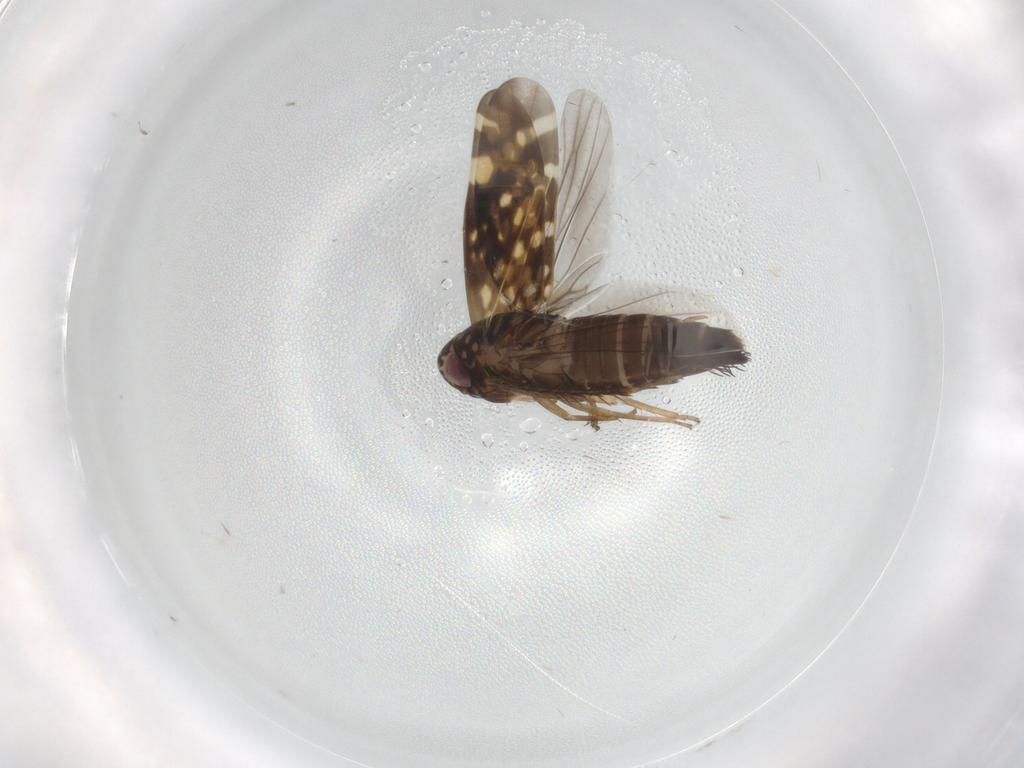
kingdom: Animalia
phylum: Arthropoda
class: Insecta
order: Hemiptera
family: Cicadellidae
